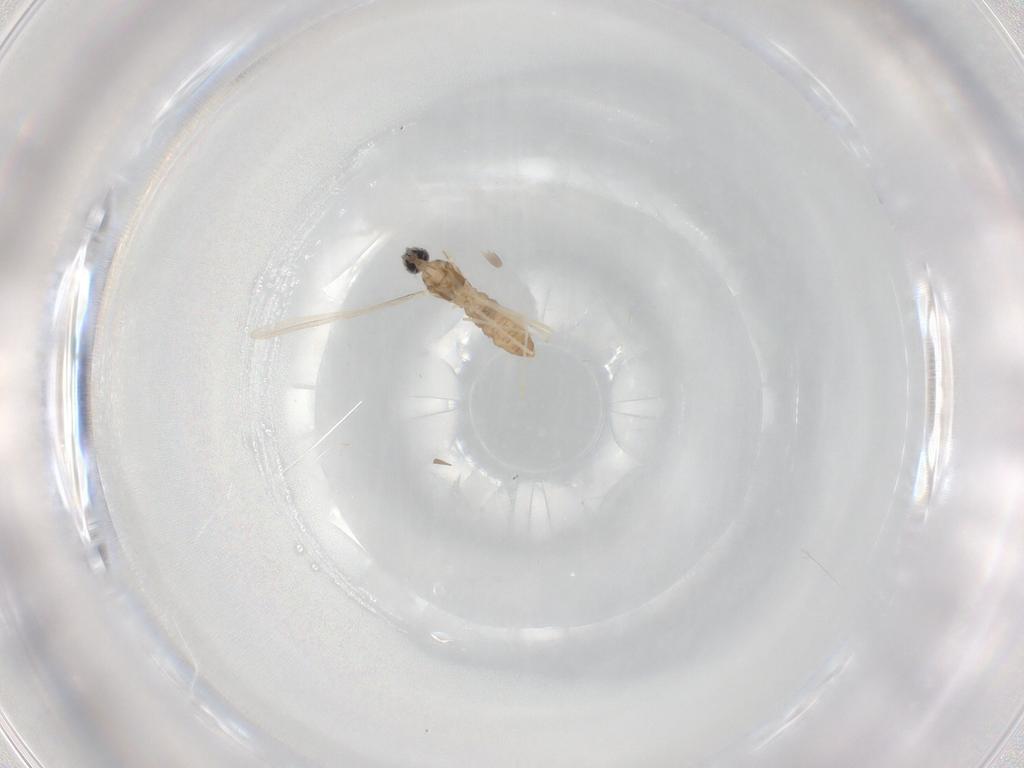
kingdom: Animalia
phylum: Arthropoda
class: Insecta
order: Diptera
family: Cecidomyiidae
